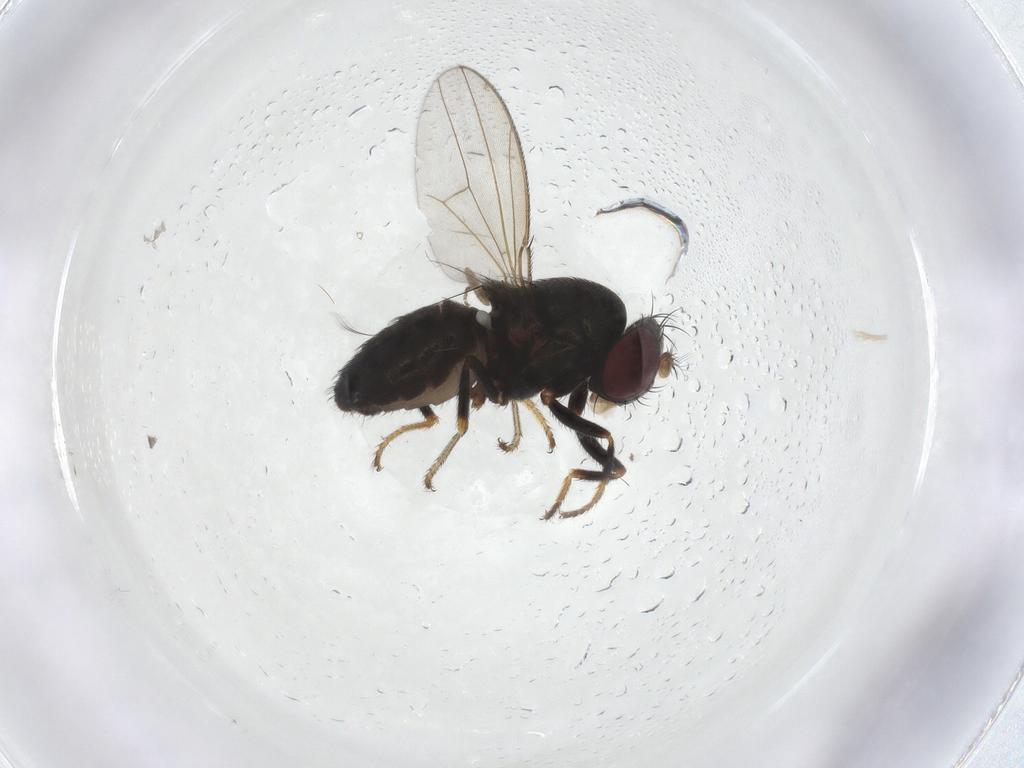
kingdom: Animalia
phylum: Arthropoda
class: Insecta
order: Diptera
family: Ephydridae
